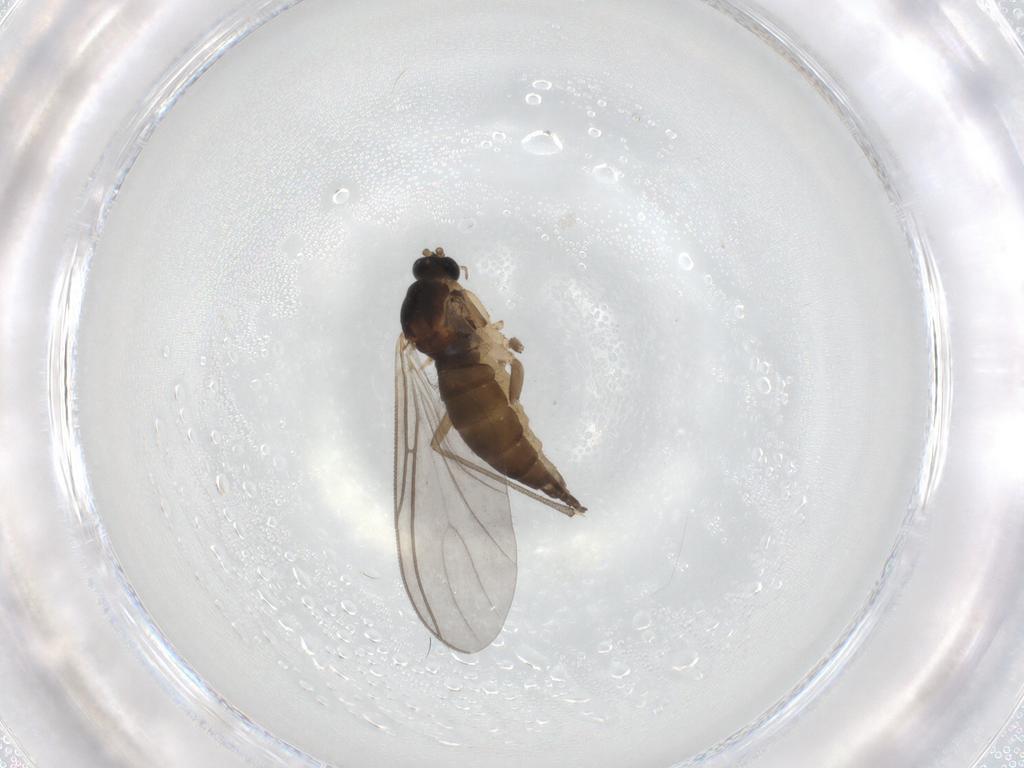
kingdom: Animalia
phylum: Arthropoda
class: Insecta
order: Diptera
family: Sciaridae
